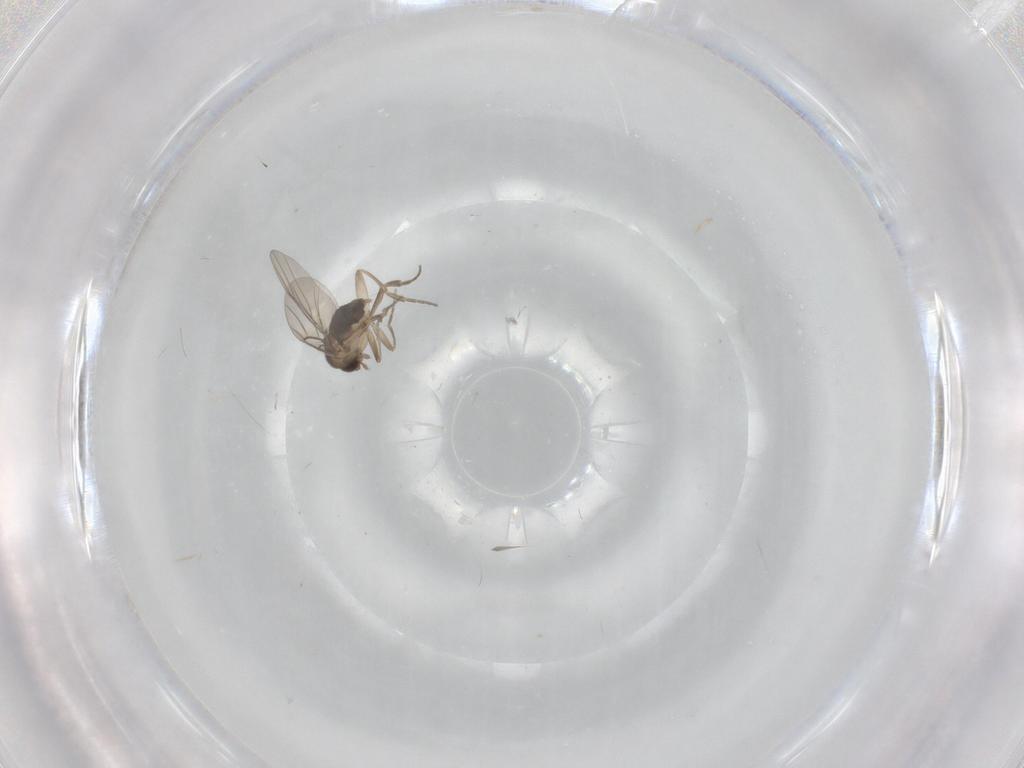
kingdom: Animalia
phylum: Arthropoda
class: Insecta
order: Diptera
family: Phoridae
